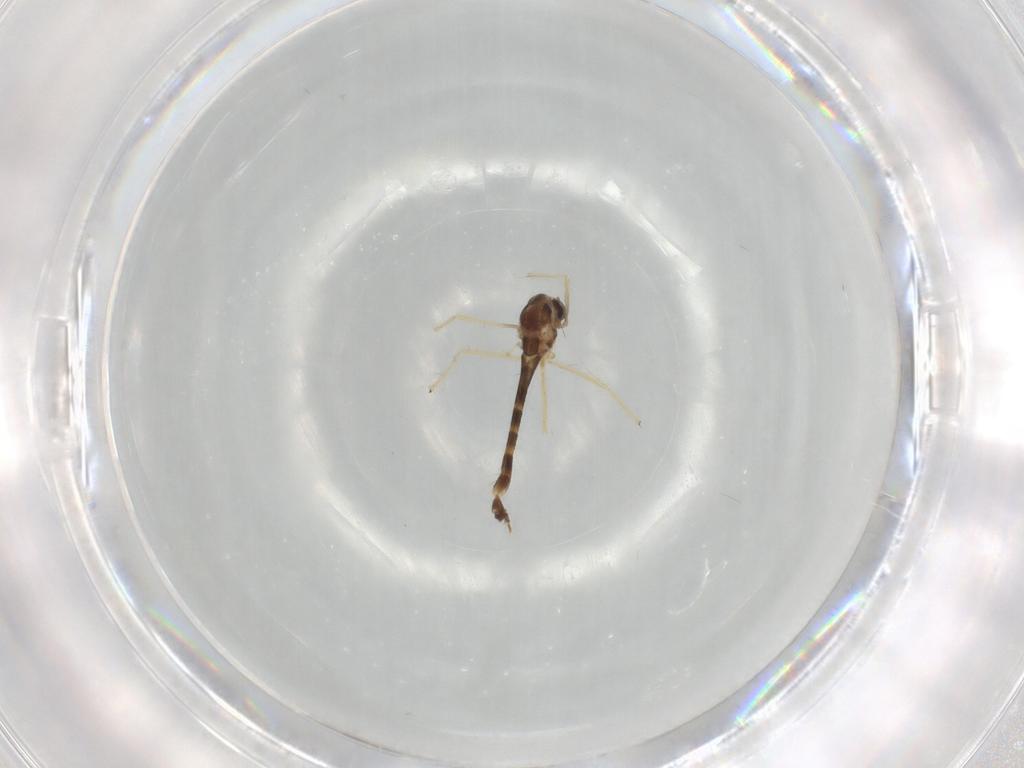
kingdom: Animalia
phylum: Arthropoda
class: Insecta
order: Diptera
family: Chironomidae
